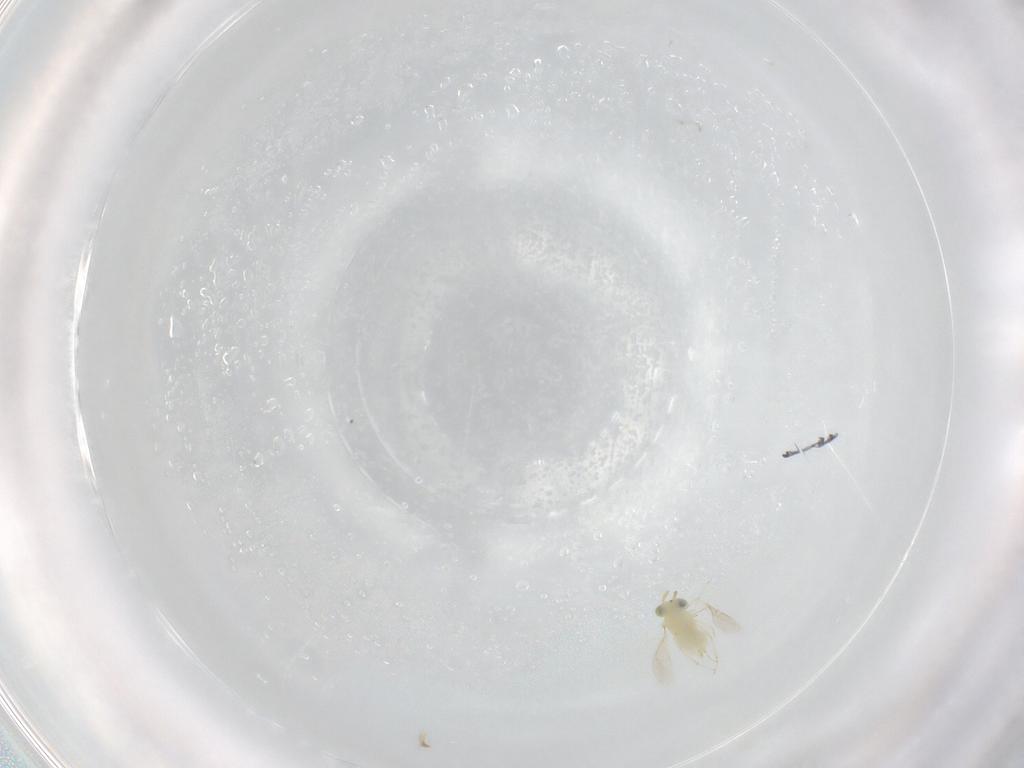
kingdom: Animalia
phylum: Arthropoda
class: Insecta
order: Hymenoptera
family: Aphelinidae
